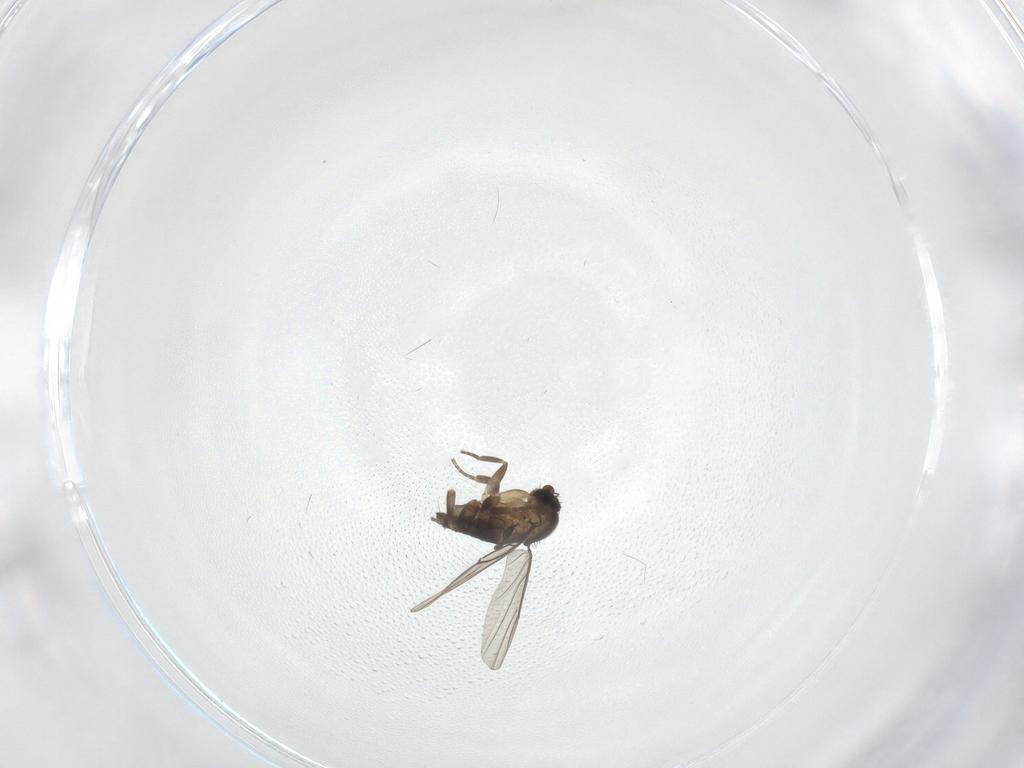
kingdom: Animalia
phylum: Arthropoda
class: Insecta
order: Diptera
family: Phoridae
